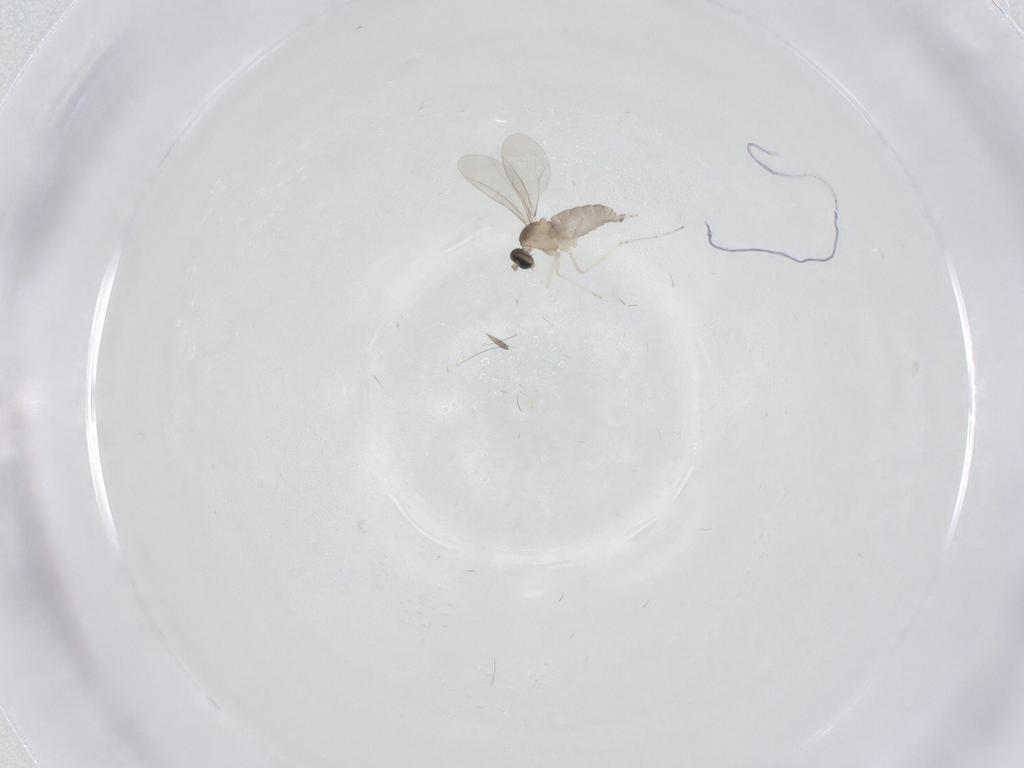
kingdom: Animalia
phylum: Arthropoda
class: Insecta
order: Diptera
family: Cecidomyiidae
